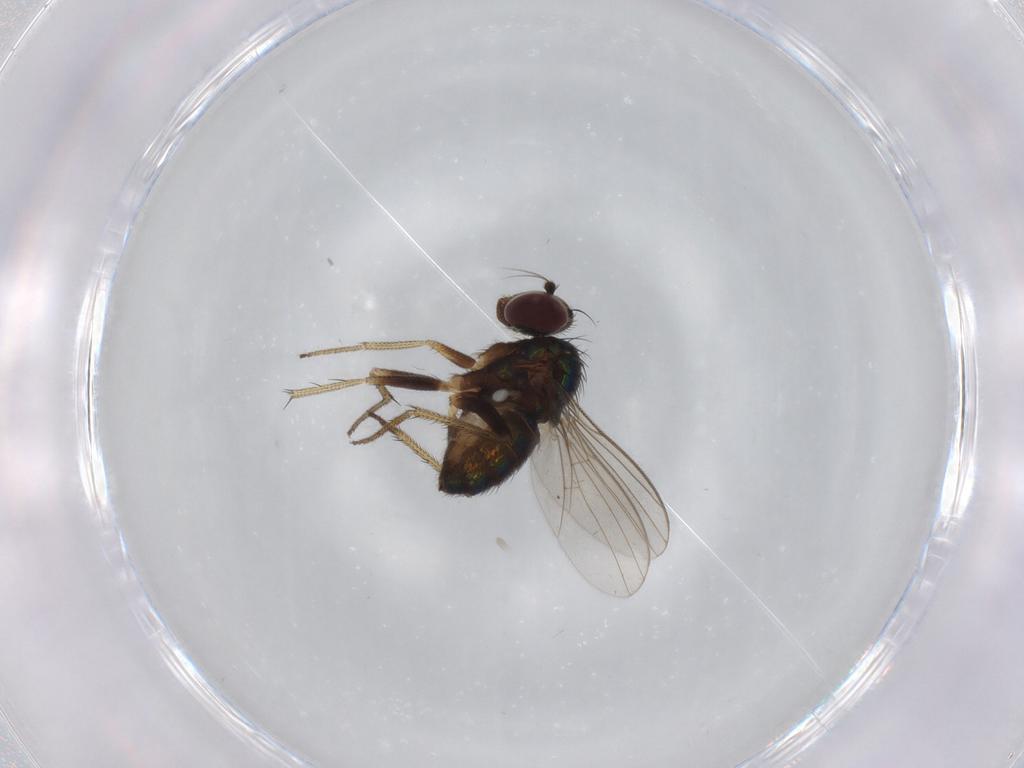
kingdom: Animalia
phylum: Arthropoda
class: Insecta
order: Diptera
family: Dolichopodidae
